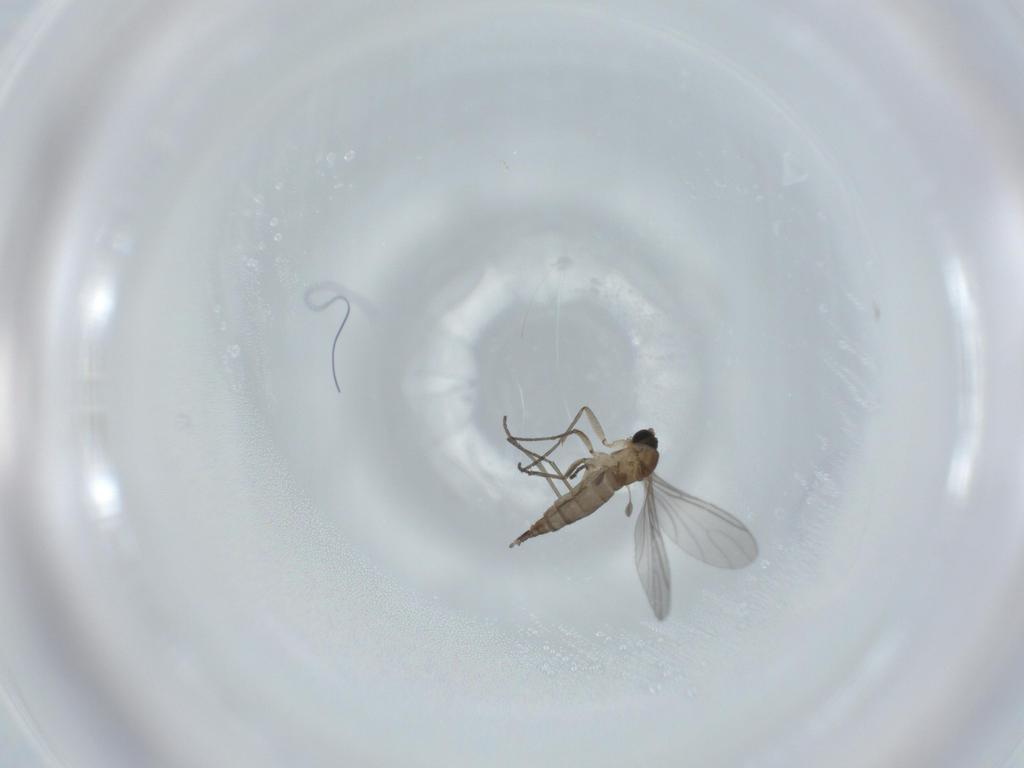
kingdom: Animalia
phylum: Arthropoda
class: Insecta
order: Diptera
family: Sciaridae
